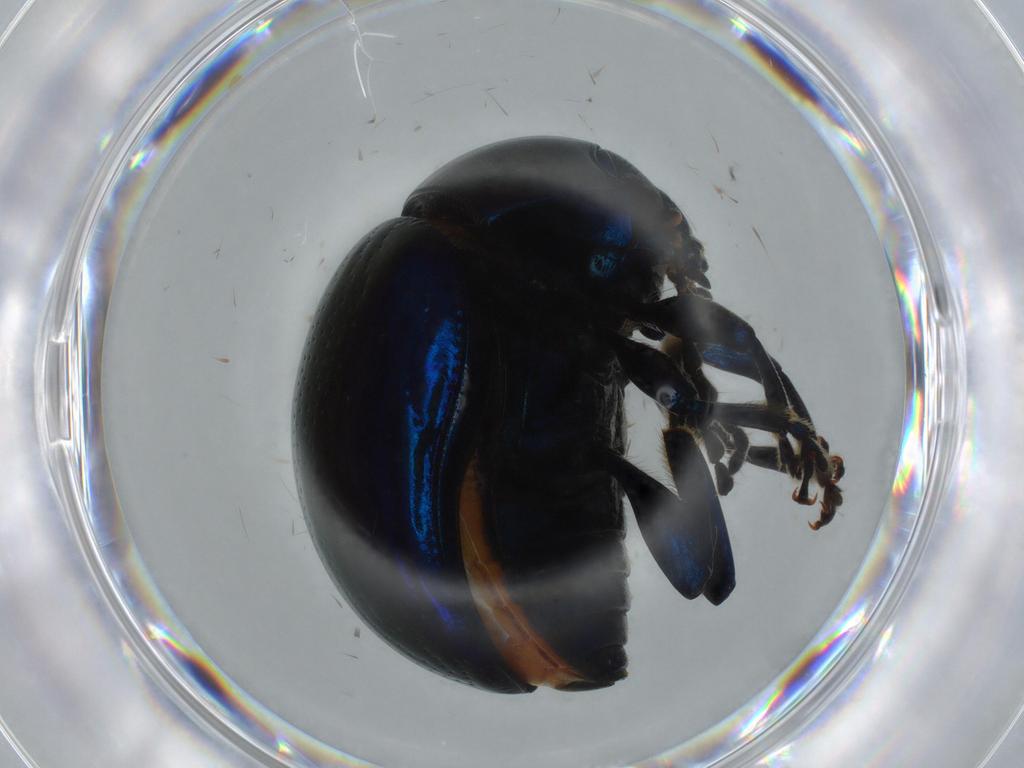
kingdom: Animalia
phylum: Arthropoda
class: Insecta
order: Coleoptera
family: Chrysomelidae
